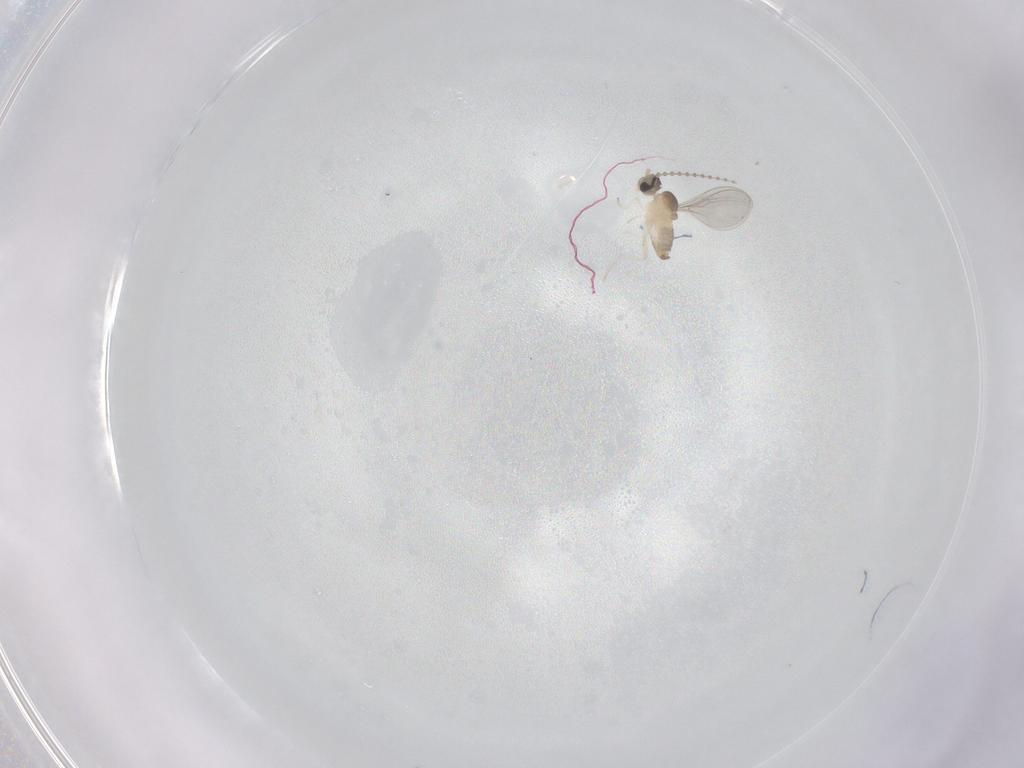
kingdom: Animalia
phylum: Arthropoda
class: Insecta
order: Diptera
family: Cecidomyiidae
